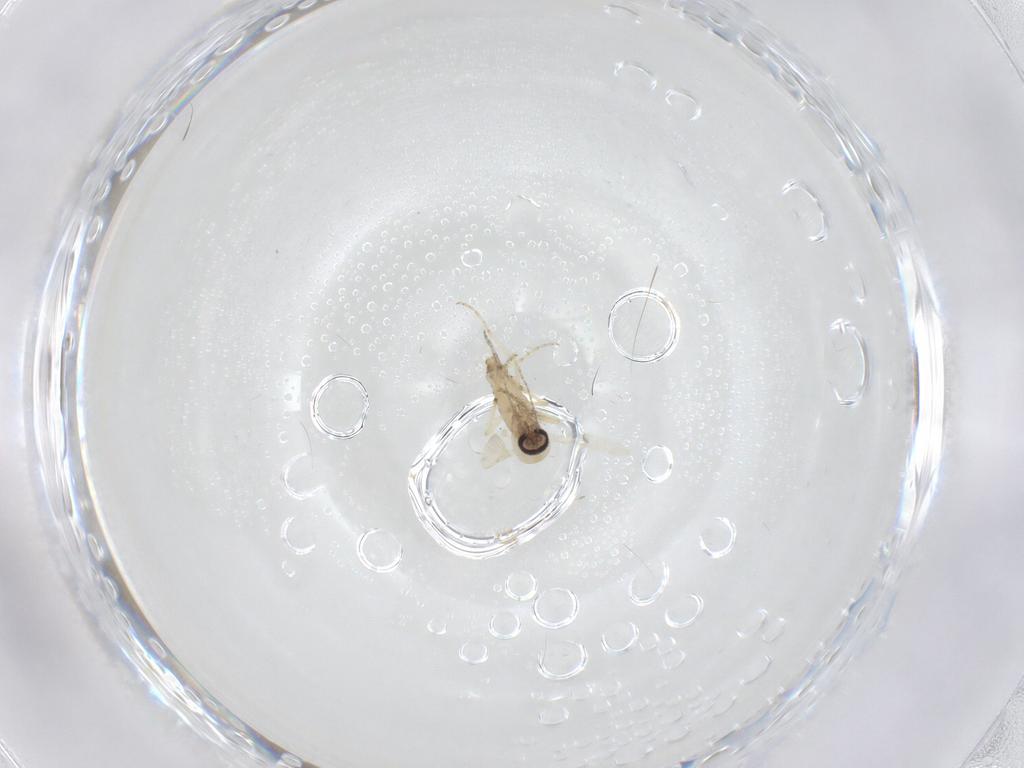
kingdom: Animalia
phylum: Arthropoda
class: Insecta
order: Diptera
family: Ceratopogonidae
